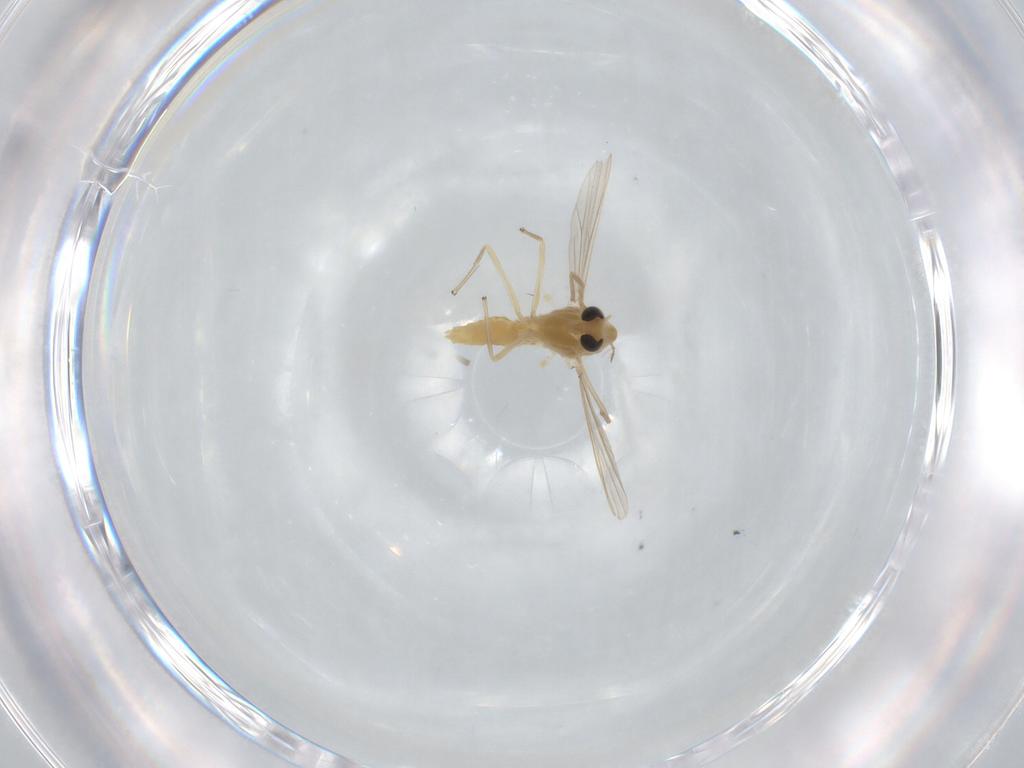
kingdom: Animalia
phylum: Arthropoda
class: Insecta
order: Diptera
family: Chironomidae
